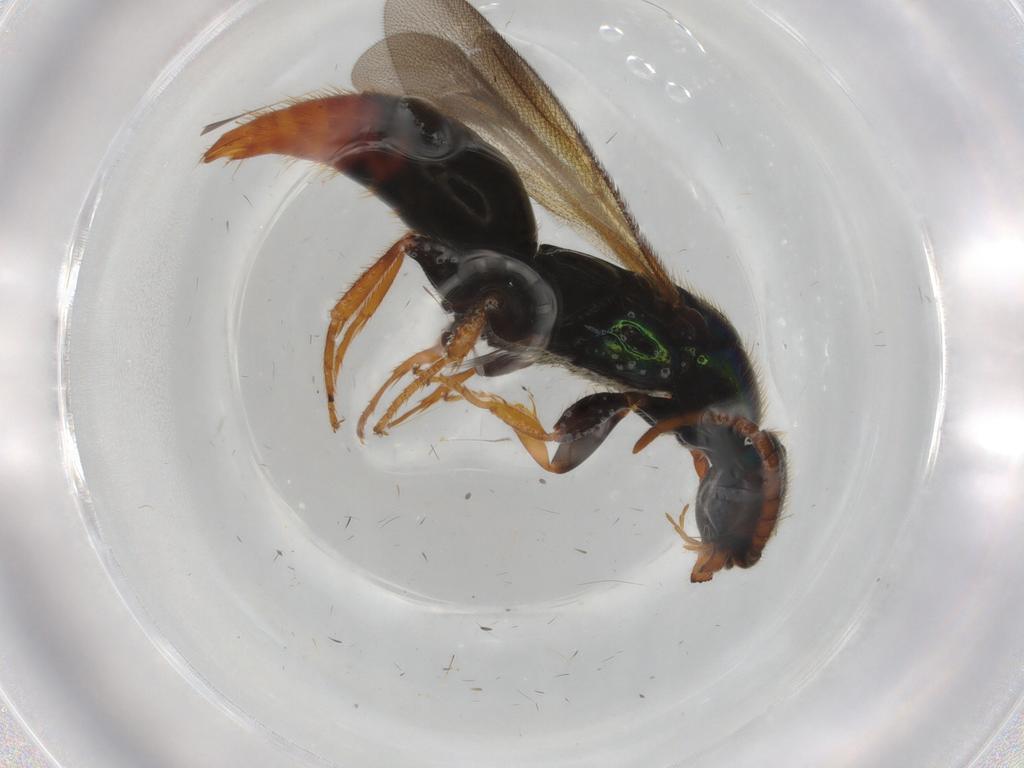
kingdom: Animalia
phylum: Arthropoda
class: Insecta
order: Hymenoptera
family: Bethylidae
